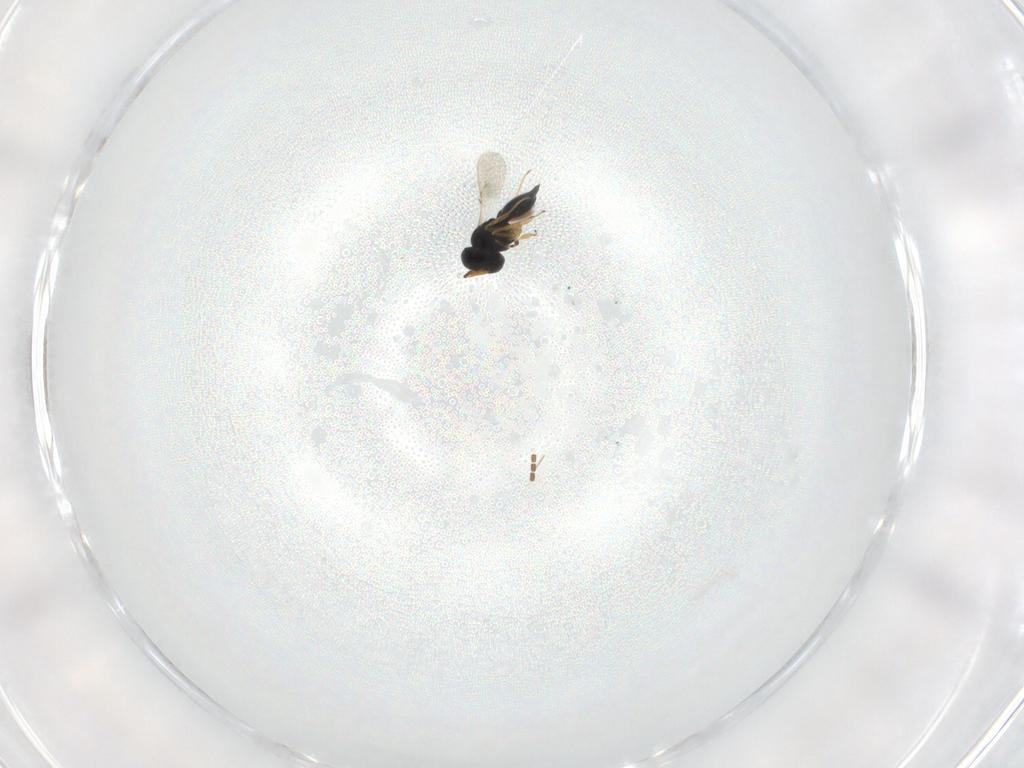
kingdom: Animalia
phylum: Arthropoda
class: Insecta
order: Hymenoptera
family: Scelionidae
